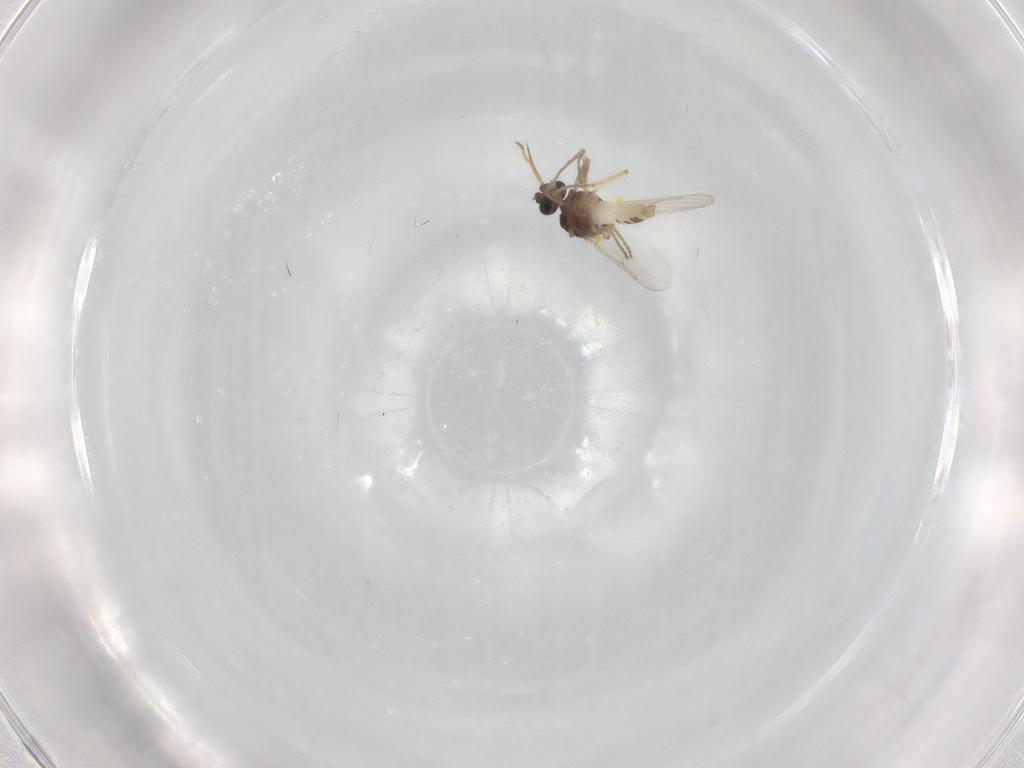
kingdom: Animalia
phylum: Arthropoda
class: Insecta
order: Diptera
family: Ceratopogonidae
